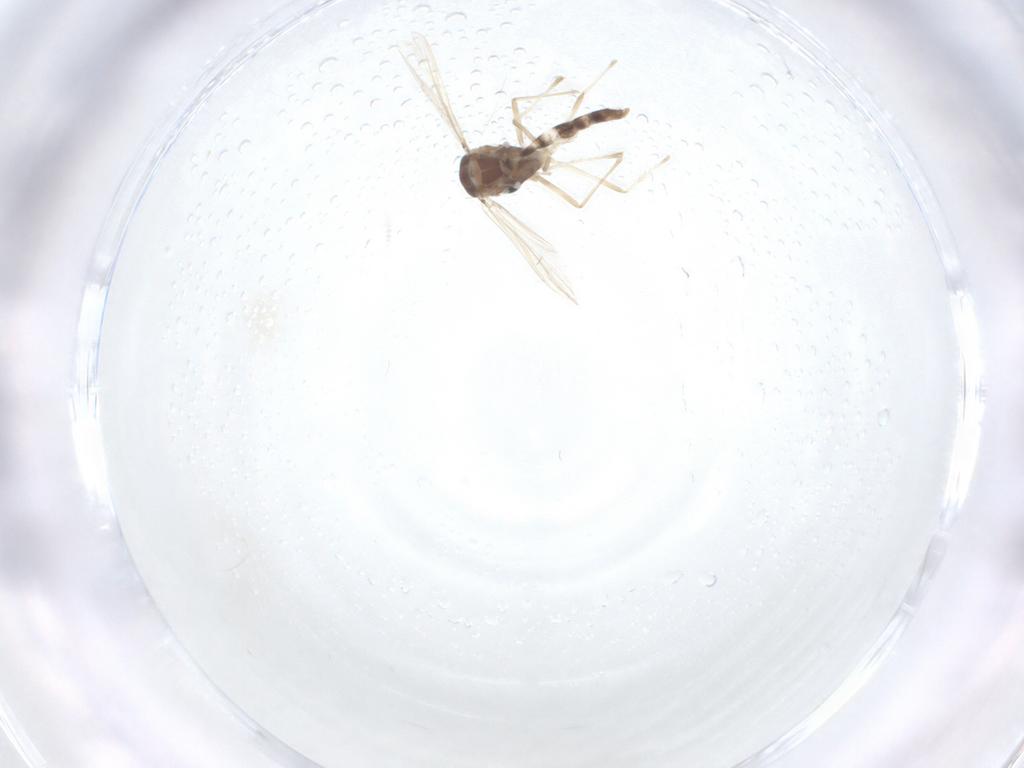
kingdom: Animalia
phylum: Arthropoda
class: Insecta
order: Diptera
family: Chironomidae
